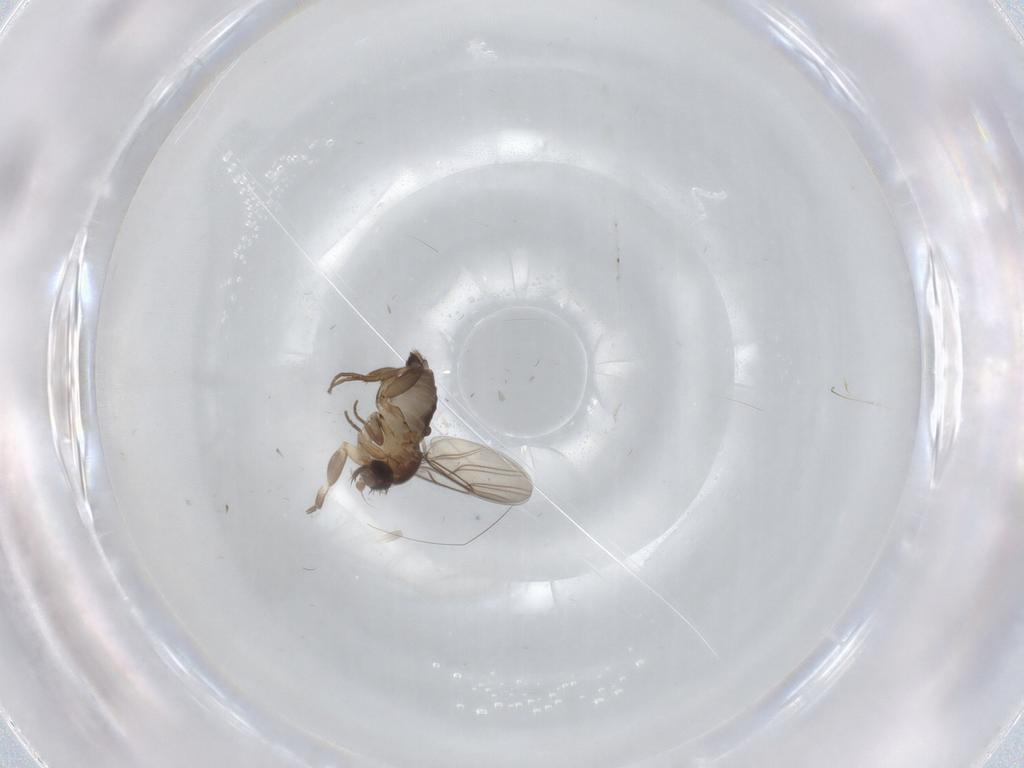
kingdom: Animalia
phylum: Arthropoda
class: Insecta
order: Diptera
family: Phoridae
